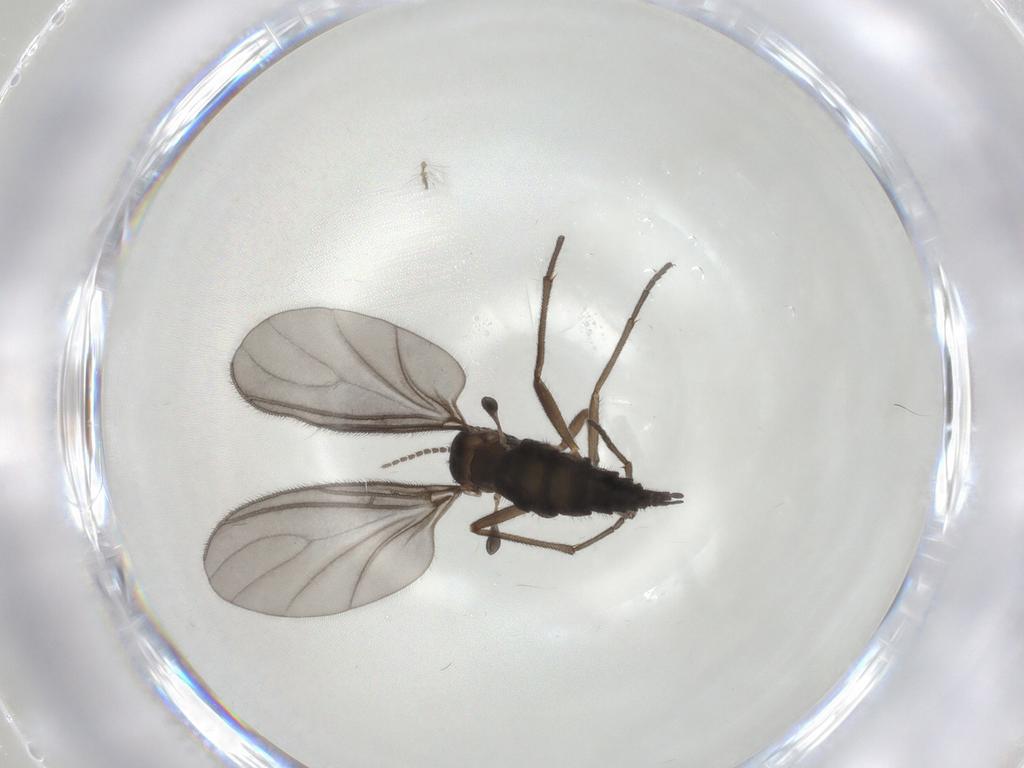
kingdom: Animalia
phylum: Arthropoda
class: Insecta
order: Diptera
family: Sciaridae
